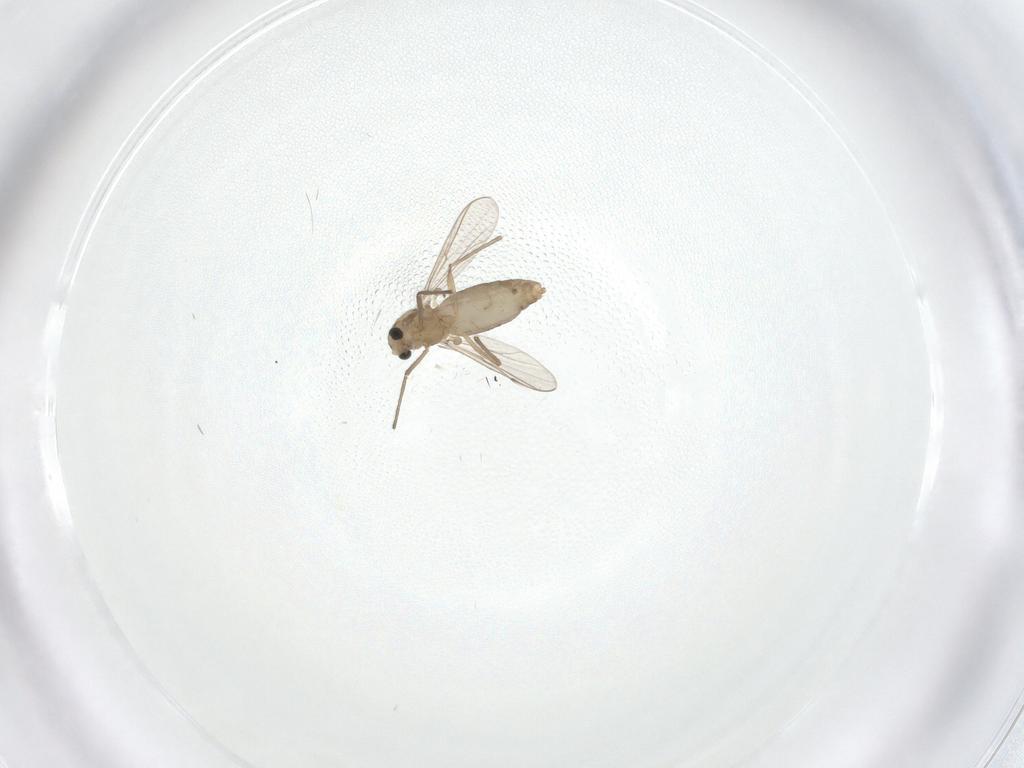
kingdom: Animalia
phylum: Arthropoda
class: Insecta
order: Diptera
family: Chironomidae
